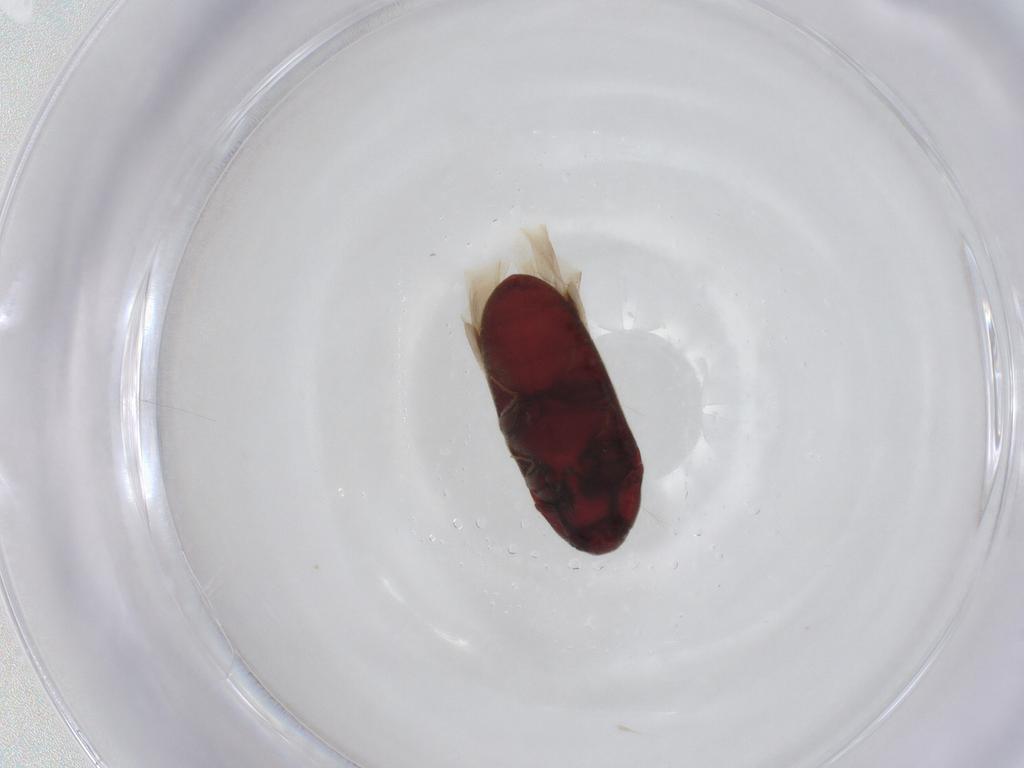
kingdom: Animalia
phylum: Arthropoda
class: Insecta
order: Coleoptera
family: Throscidae
